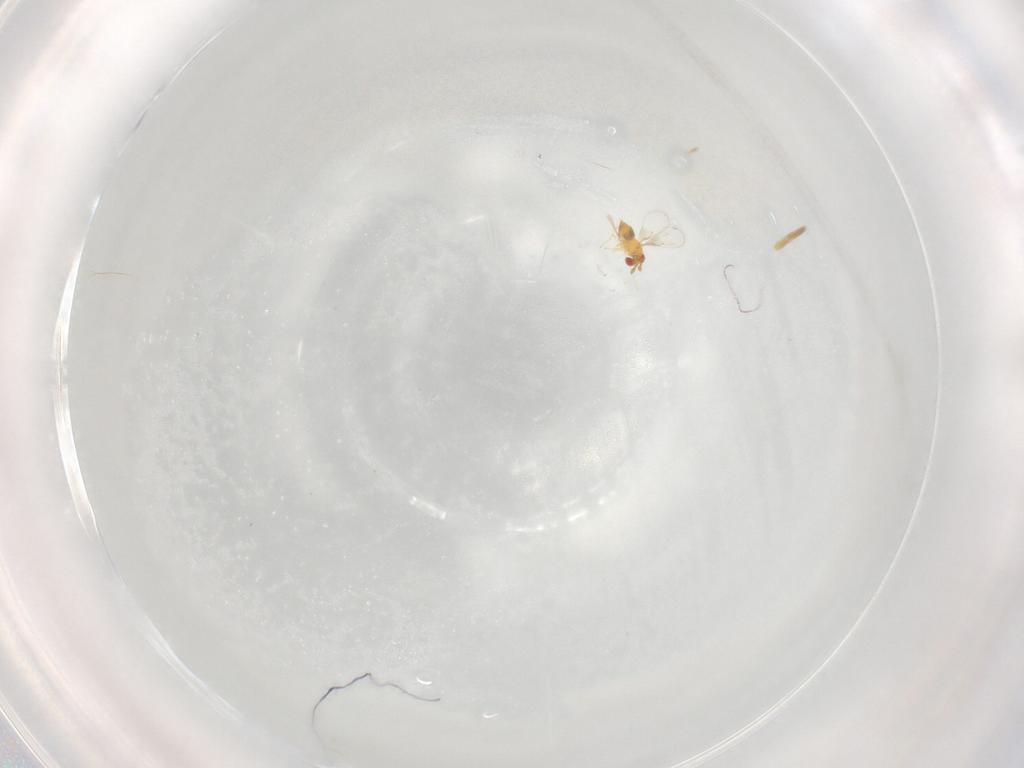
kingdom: Animalia
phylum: Arthropoda
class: Insecta
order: Hymenoptera
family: Trichogrammatidae
